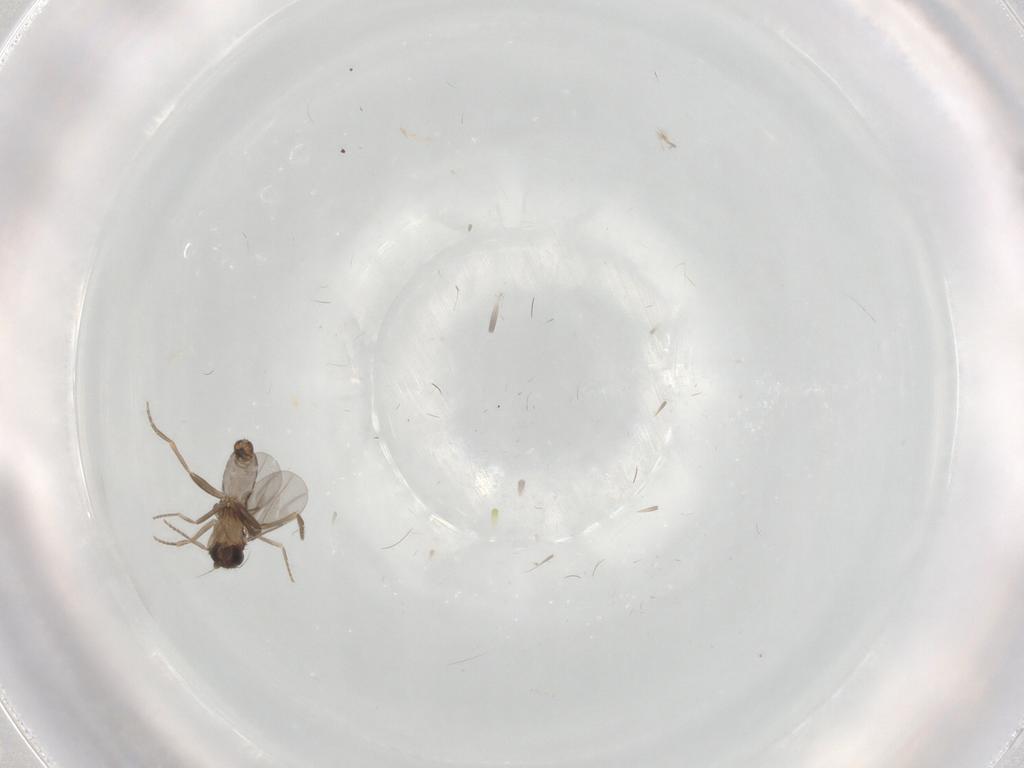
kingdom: Animalia
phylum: Arthropoda
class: Insecta
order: Diptera
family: Phoridae
